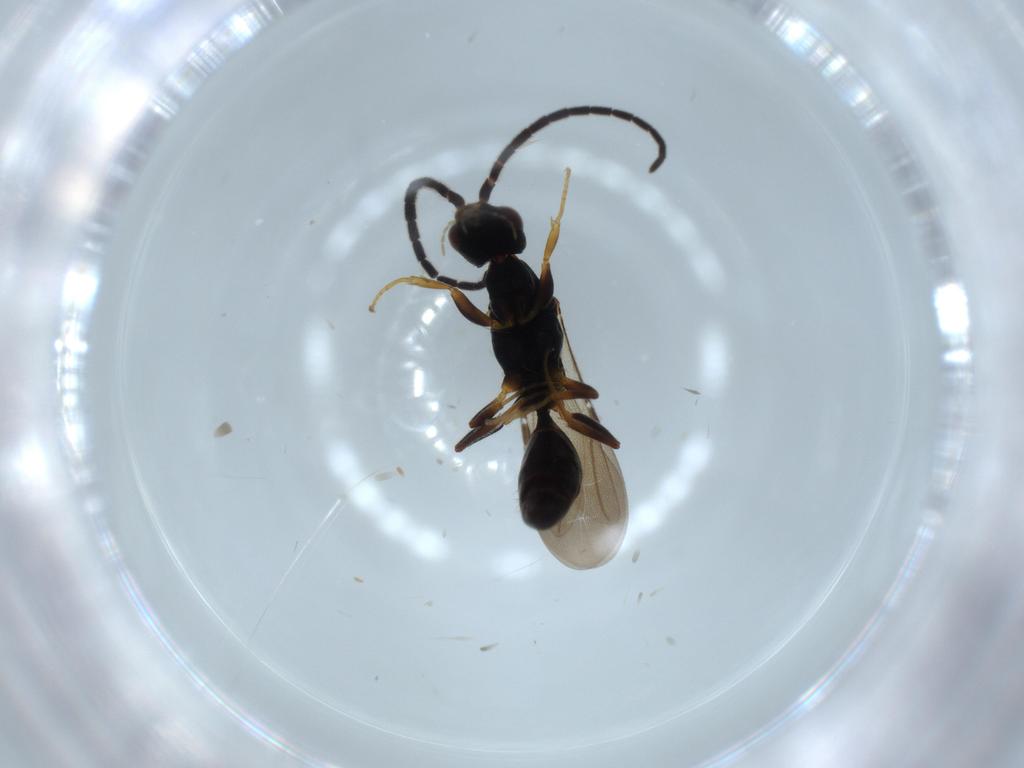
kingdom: Animalia
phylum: Arthropoda
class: Insecta
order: Hymenoptera
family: Bethylidae
